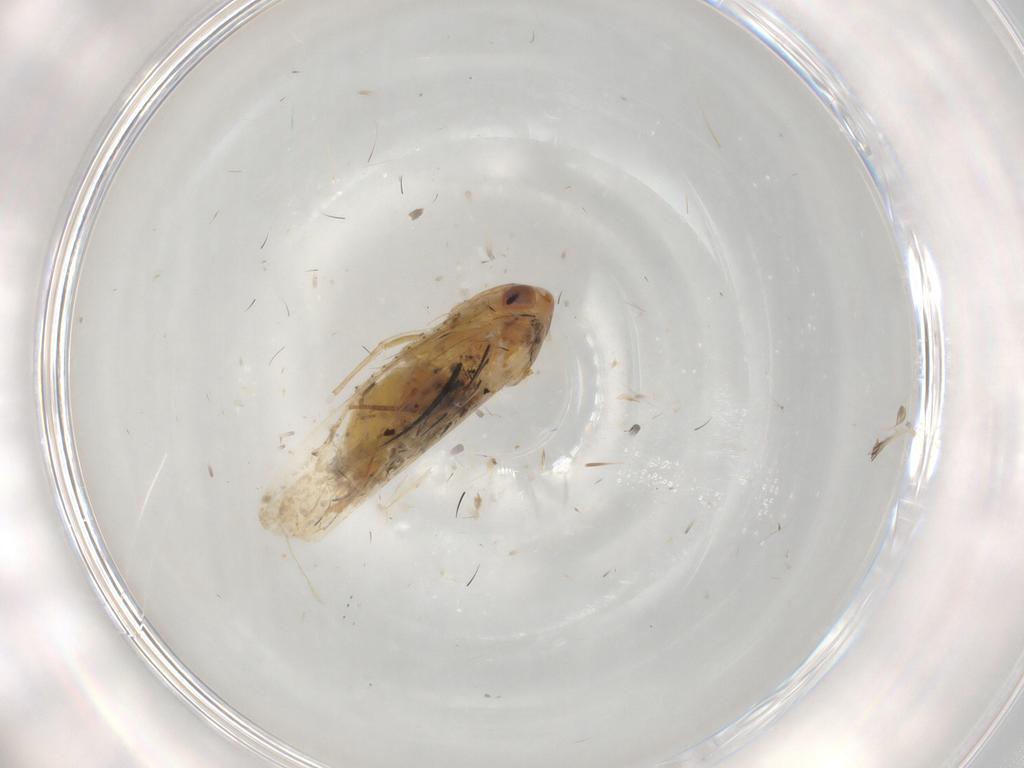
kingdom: Animalia
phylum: Arthropoda
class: Insecta
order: Hemiptera
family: Cicadellidae
